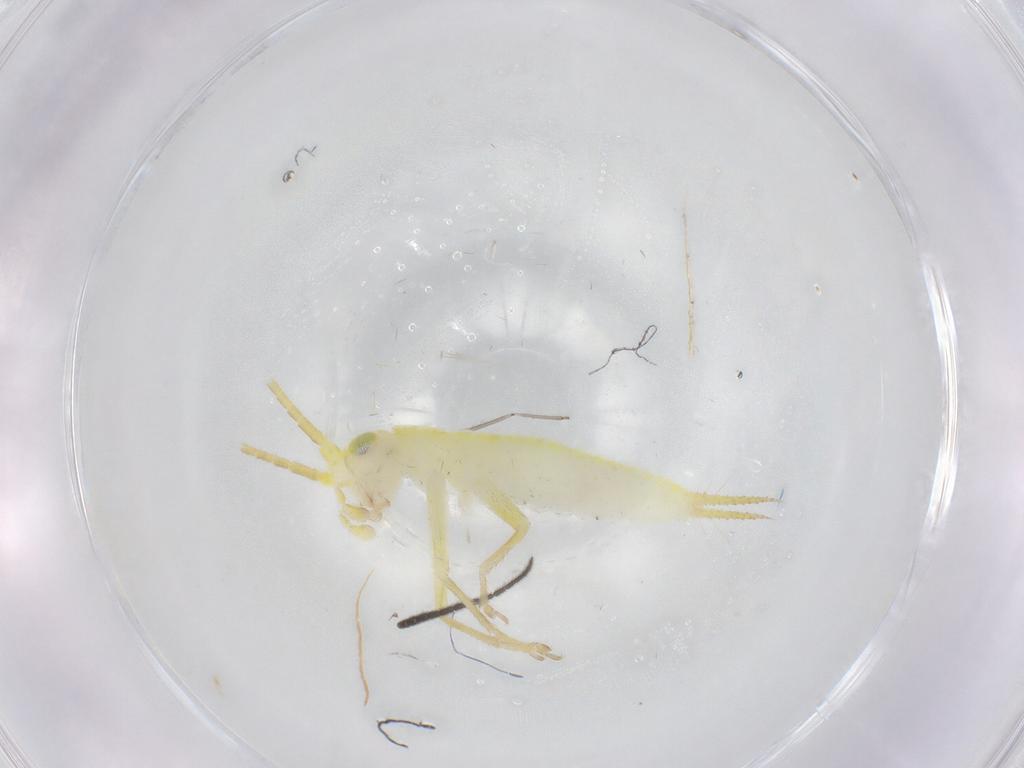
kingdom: Animalia
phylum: Arthropoda
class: Insecta
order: Orthoptera
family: Trigonidiidae
